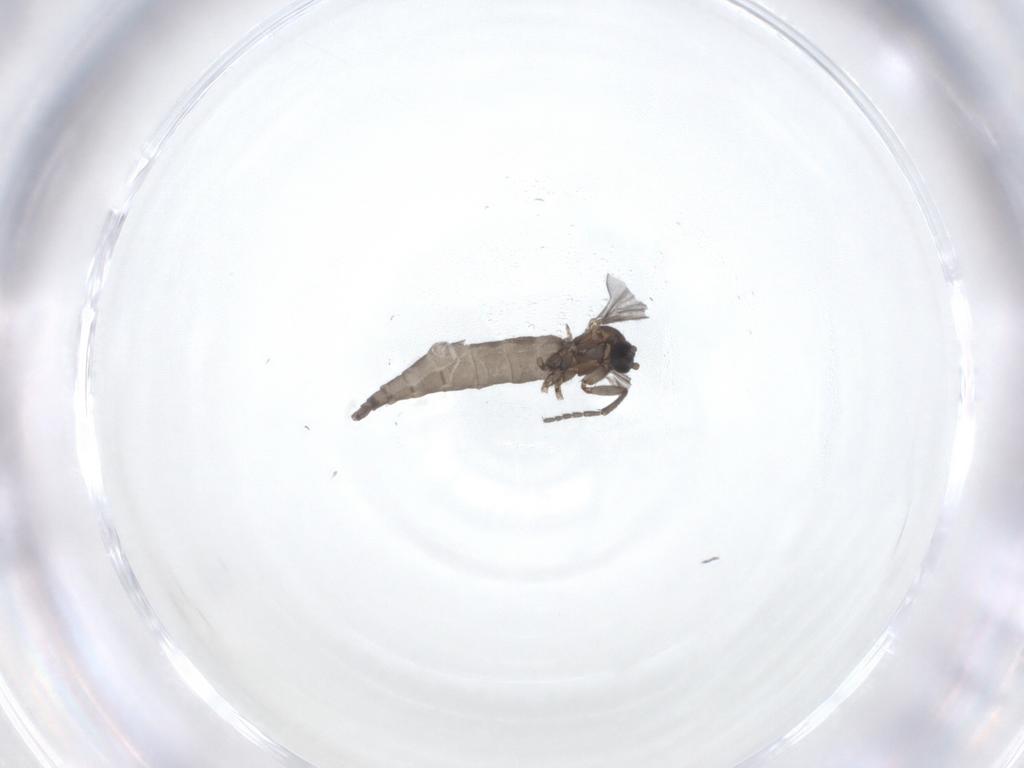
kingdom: Animalia
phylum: Arthropoda
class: Insecta
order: Diptera
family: Sciaridae
